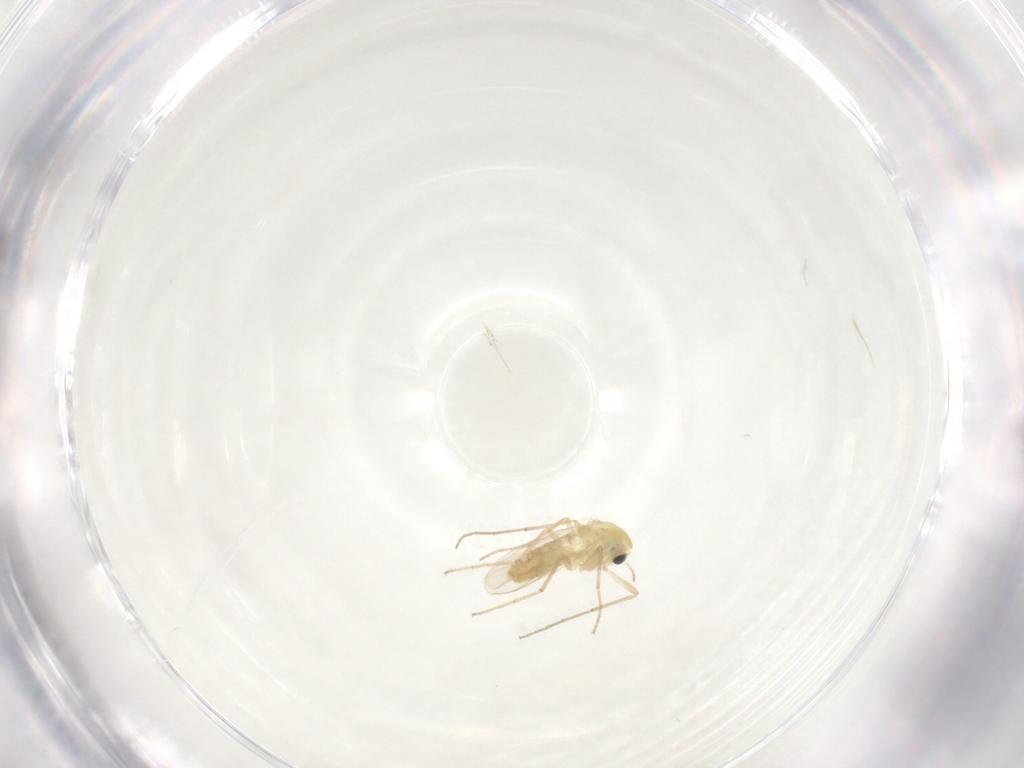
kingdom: Animalia
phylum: Arthropoda
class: Insecta
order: Diptera
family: Chironomidae
